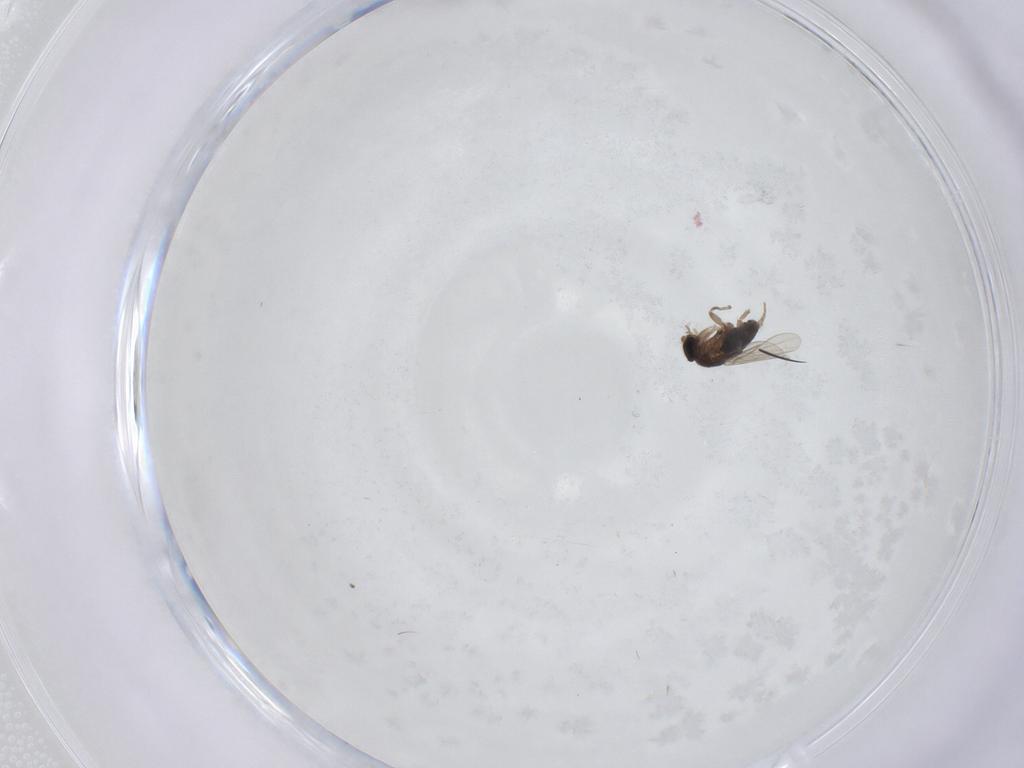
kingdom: Animalia
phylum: Arthropoda
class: Insecta
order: Diptera
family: Phoridae
